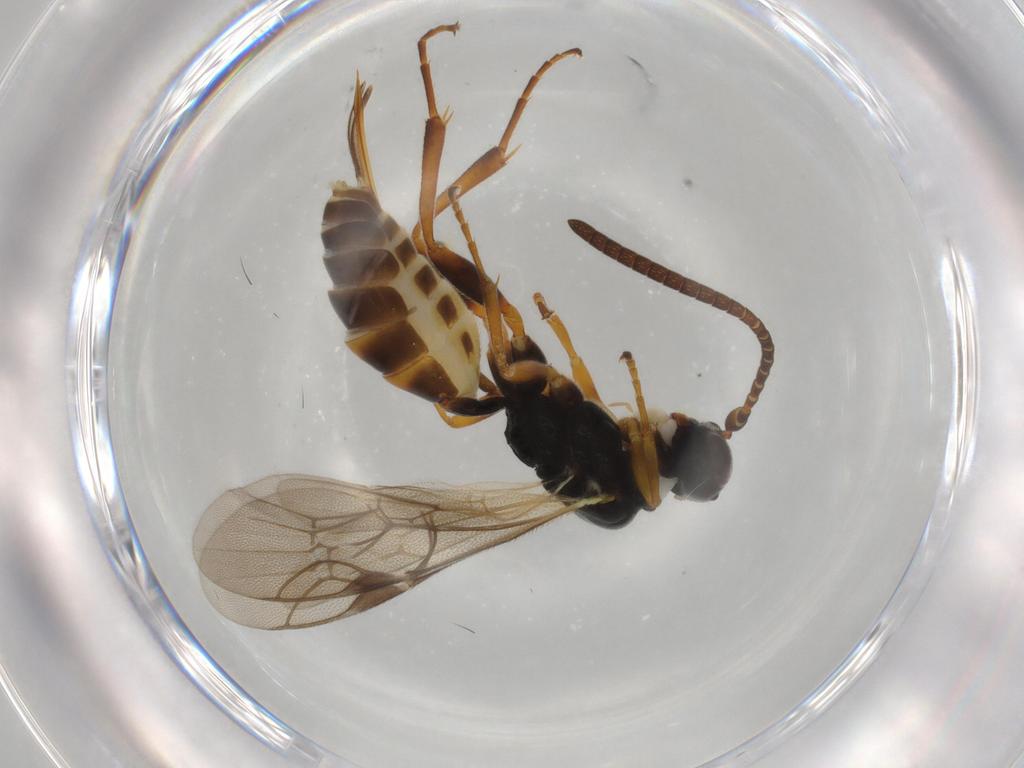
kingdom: Animalia
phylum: Arthropoda
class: Insecta
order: Hymenoptera
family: Ichneumonidae
